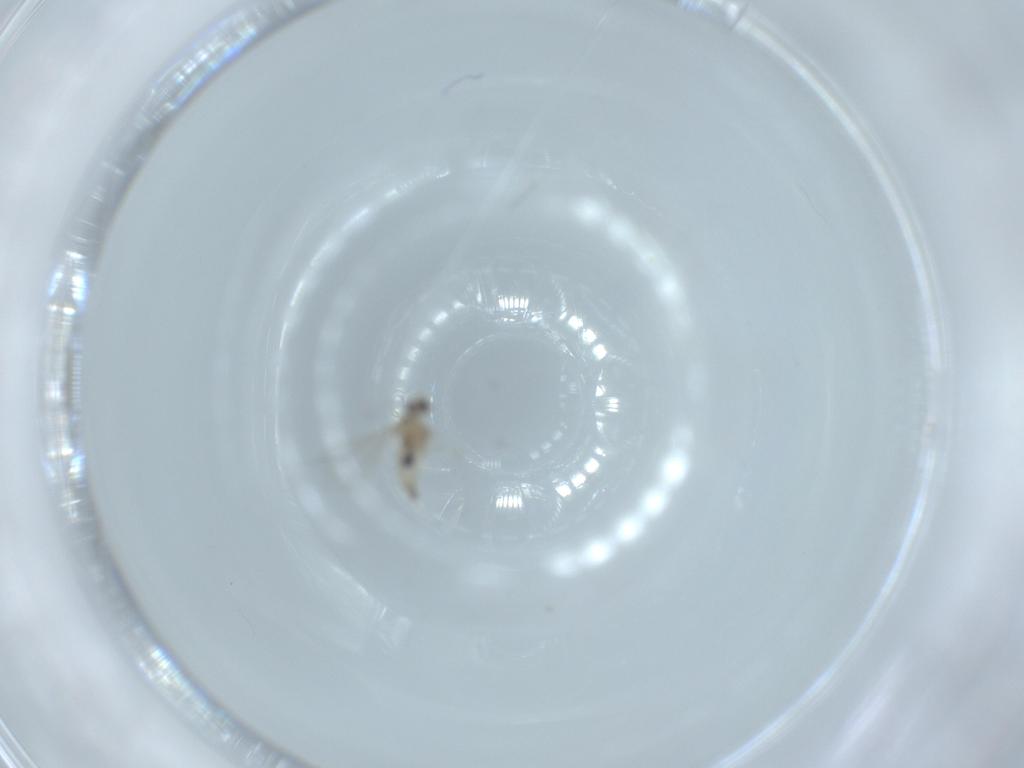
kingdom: Animalia
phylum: Arthropoda
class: Insecta
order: Diptera
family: Cecidomyiidae
